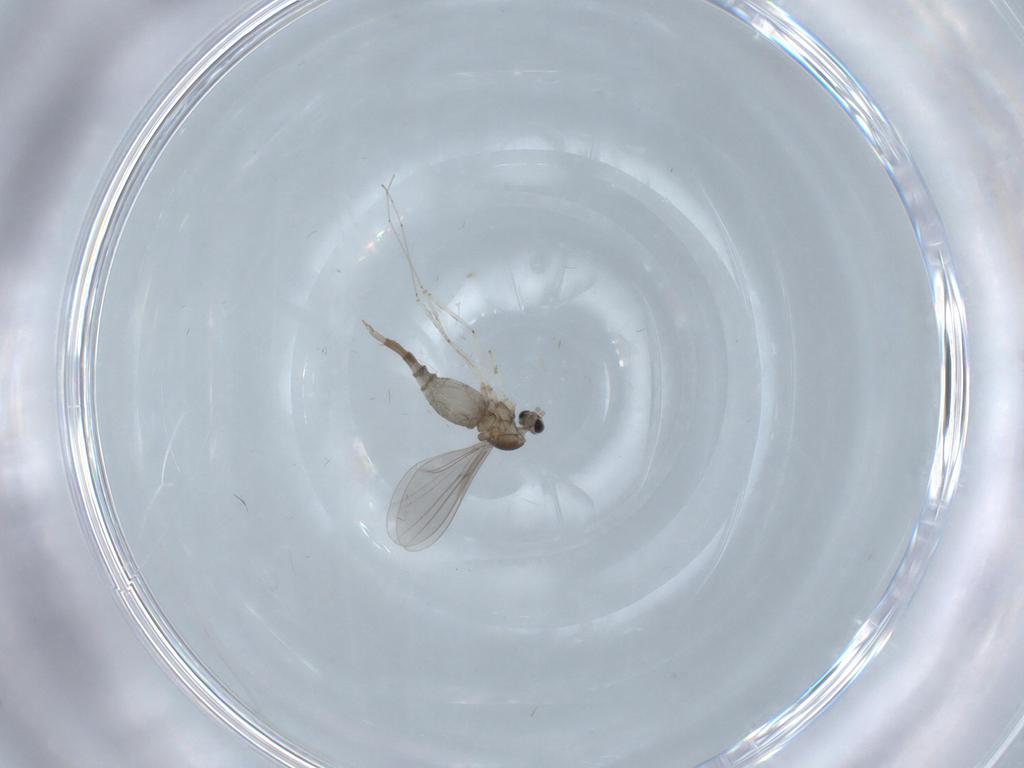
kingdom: Animalia
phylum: Arthropoda
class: Insecta
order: Diptera
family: Cecidomyiidae
